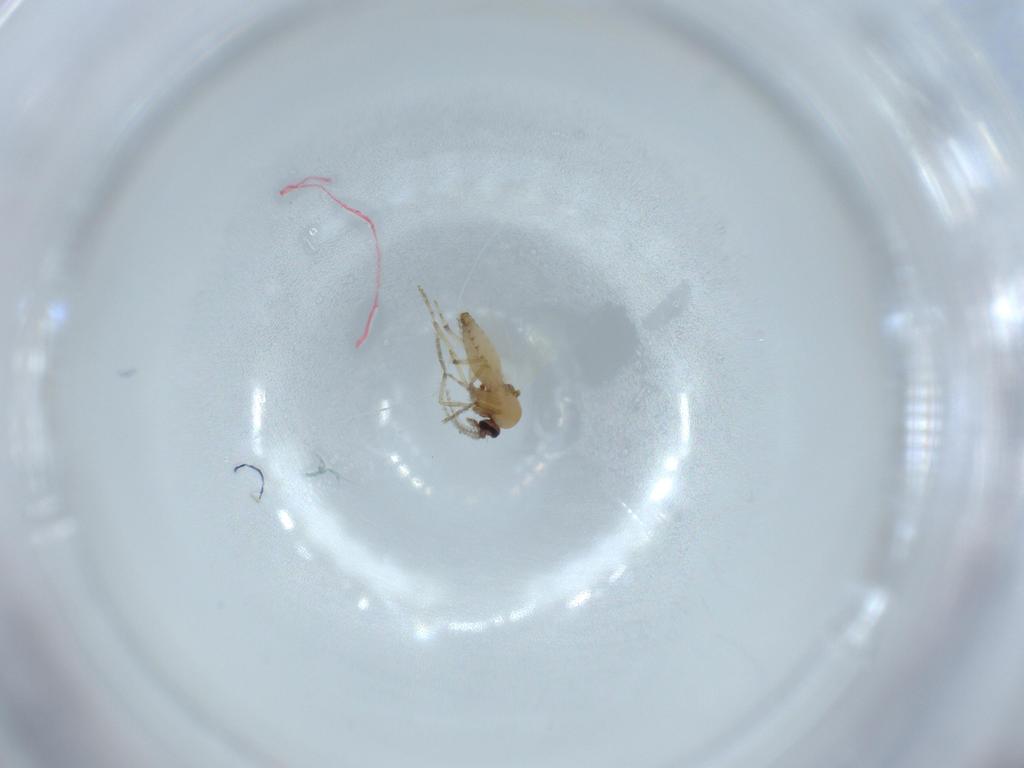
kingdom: Animalia
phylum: Arthropoda
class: Insecta
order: Diptera
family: Ceratopogonidae
